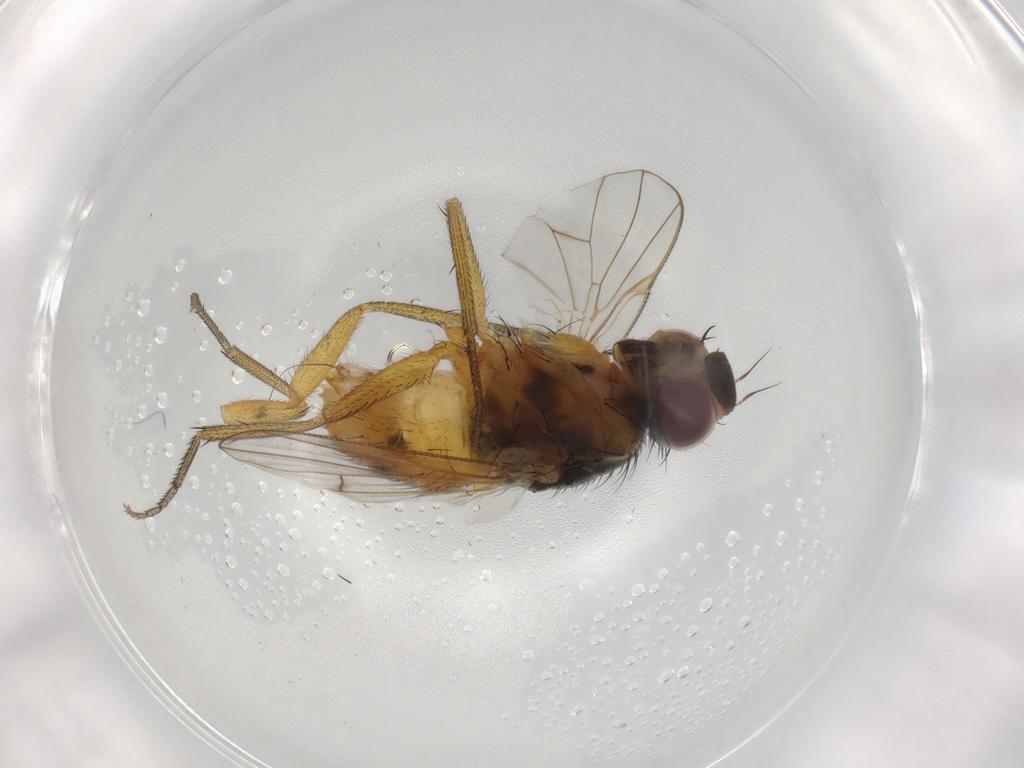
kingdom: Animalia
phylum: Arthropoda
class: Insecta
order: Diptera
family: Muscidae
